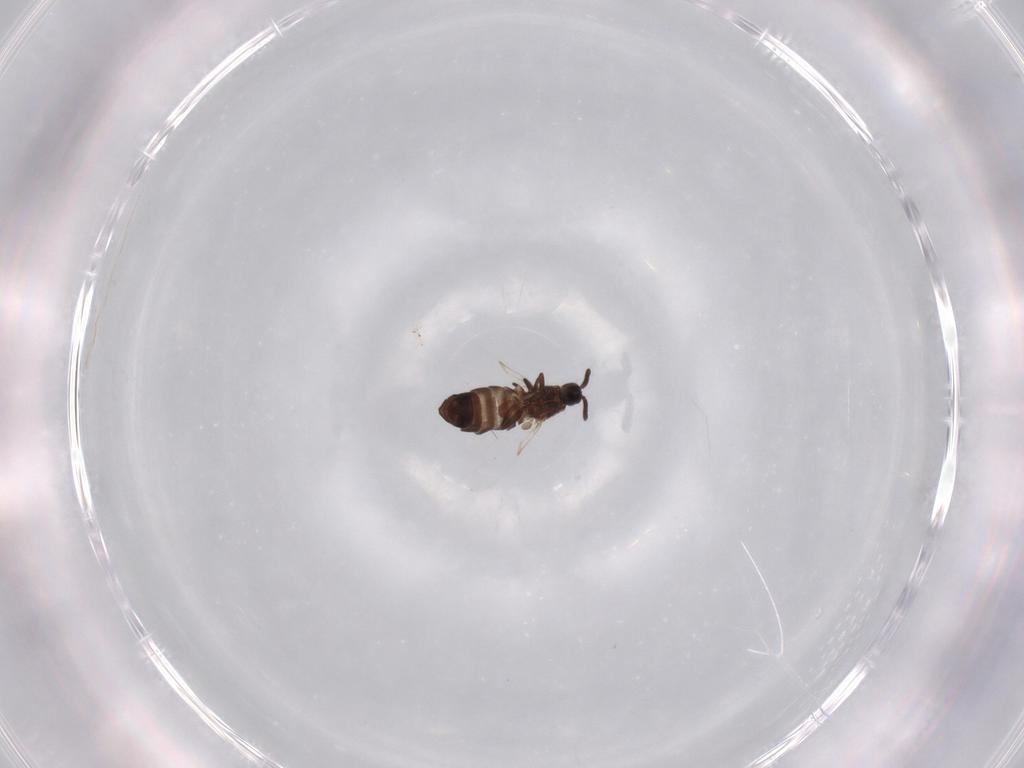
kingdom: Animalia
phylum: Arthropoda
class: Insecta
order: Diptera
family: Scatopsidae
